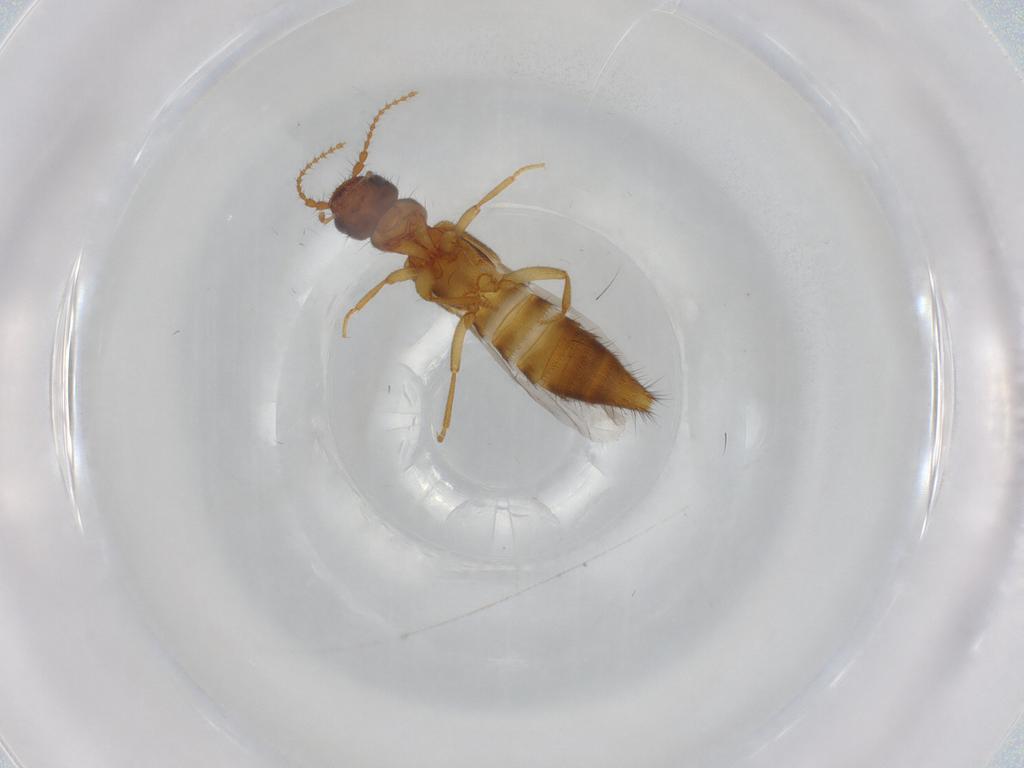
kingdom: Animalia
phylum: Arthropoda
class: Insecta
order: Coleoptera
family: Staphylinidae
